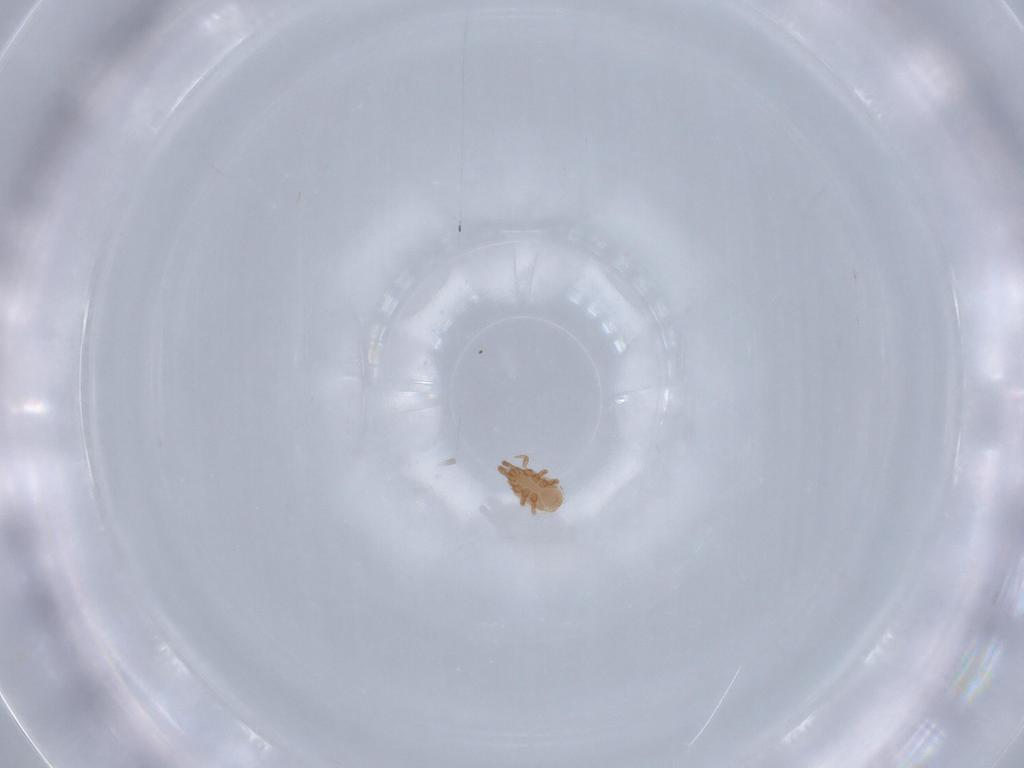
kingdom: Animalia
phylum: Arthropoda
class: Arachnida
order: Mesostigmata
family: Dinychidae
